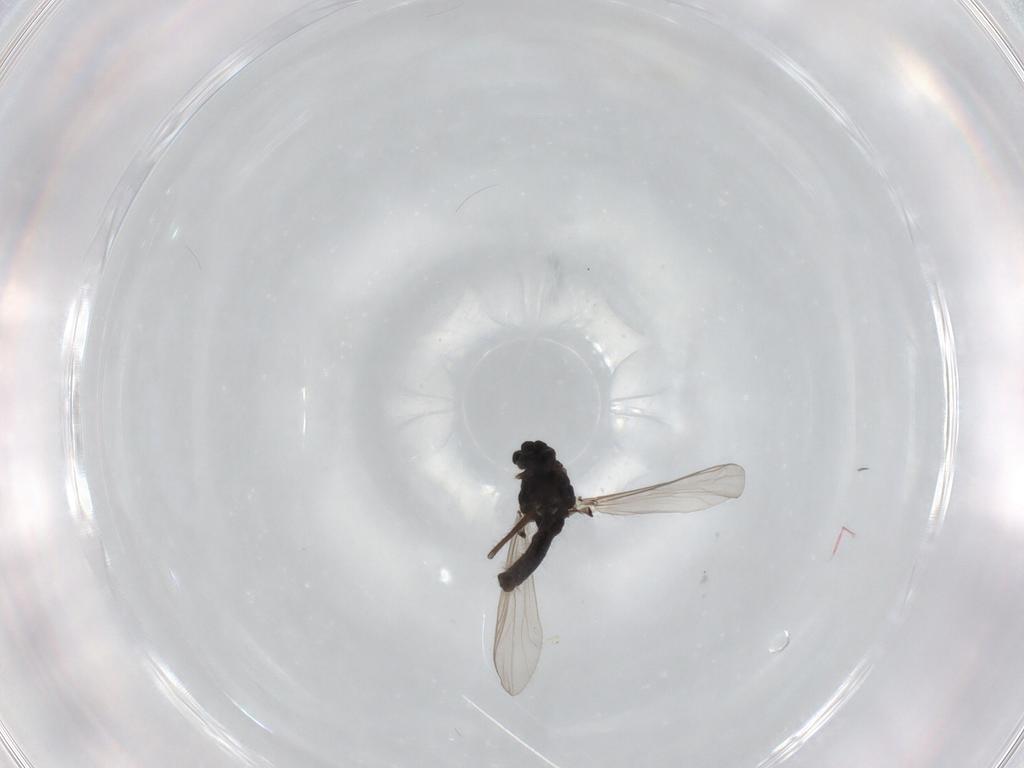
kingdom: Animalia
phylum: Arthropoda
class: Insecta
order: Diptera
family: Chironomidae
